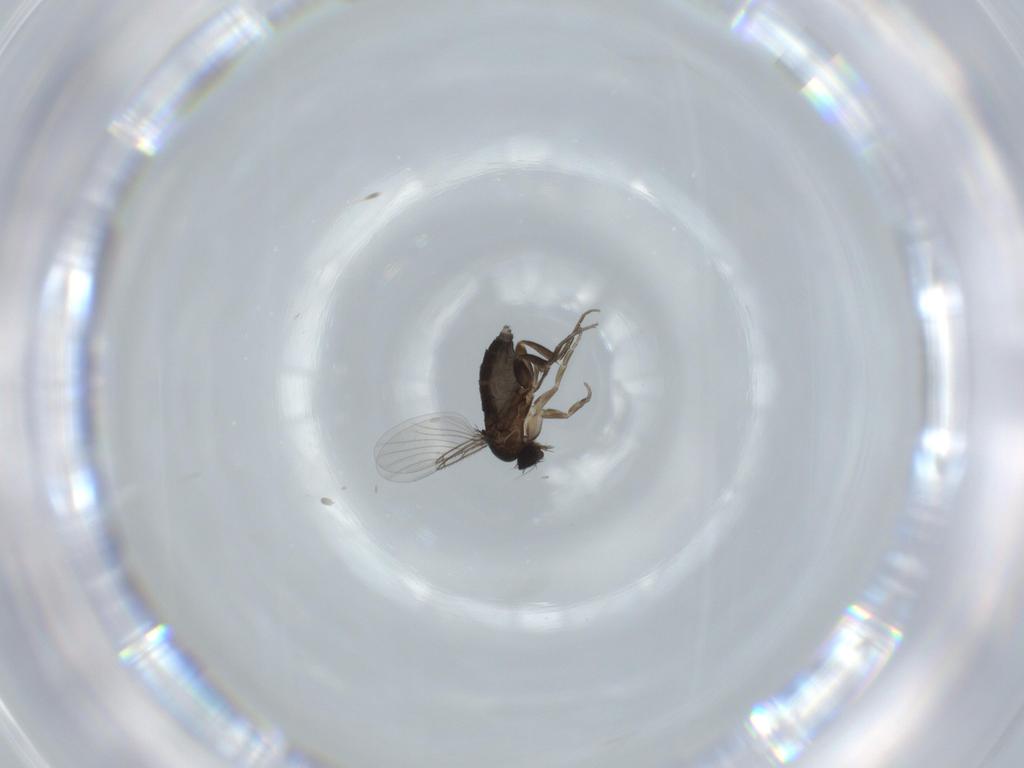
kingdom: Animalia
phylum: Arthropoda
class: Insecta
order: Diptera
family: Phoridae
